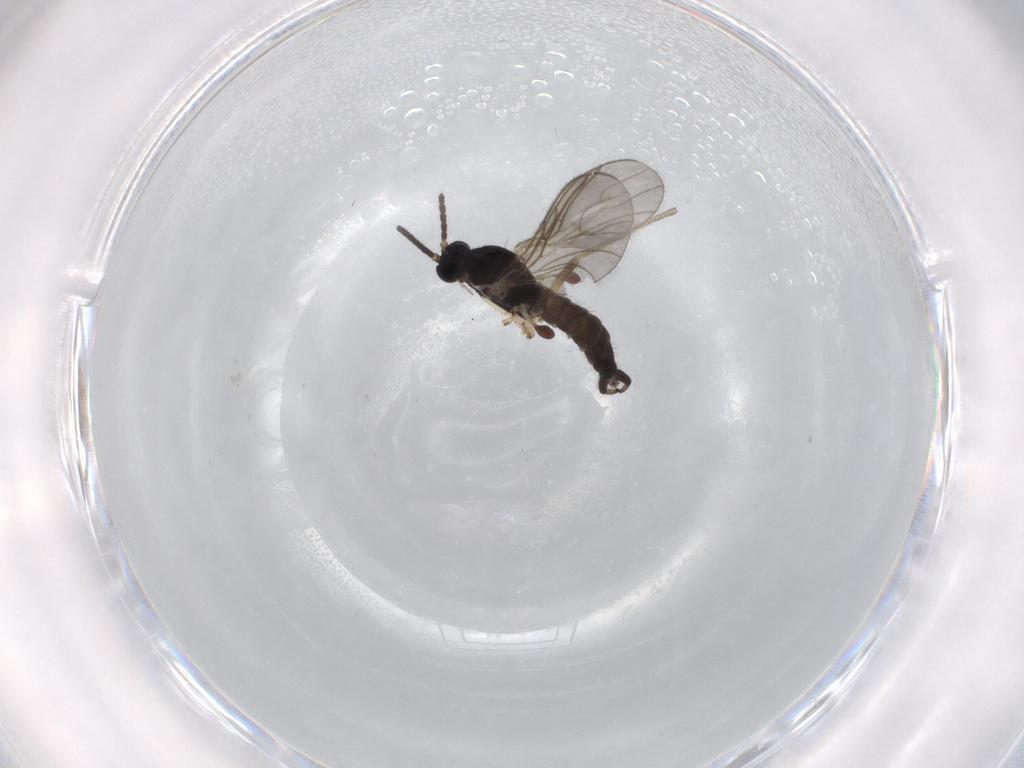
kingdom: Animalia
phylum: Arthropoda
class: Insecta
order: Diptera
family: Sciaridae
